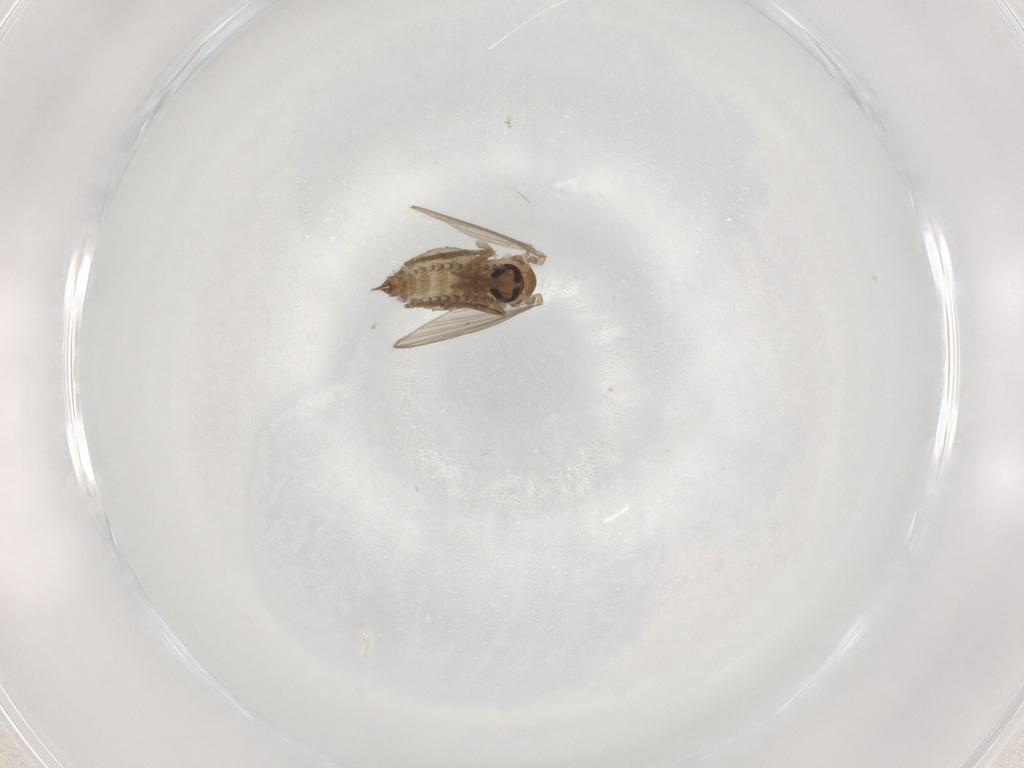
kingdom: Animalia
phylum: Arthropoda
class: Insecta
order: Diptera
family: Psychodidae
